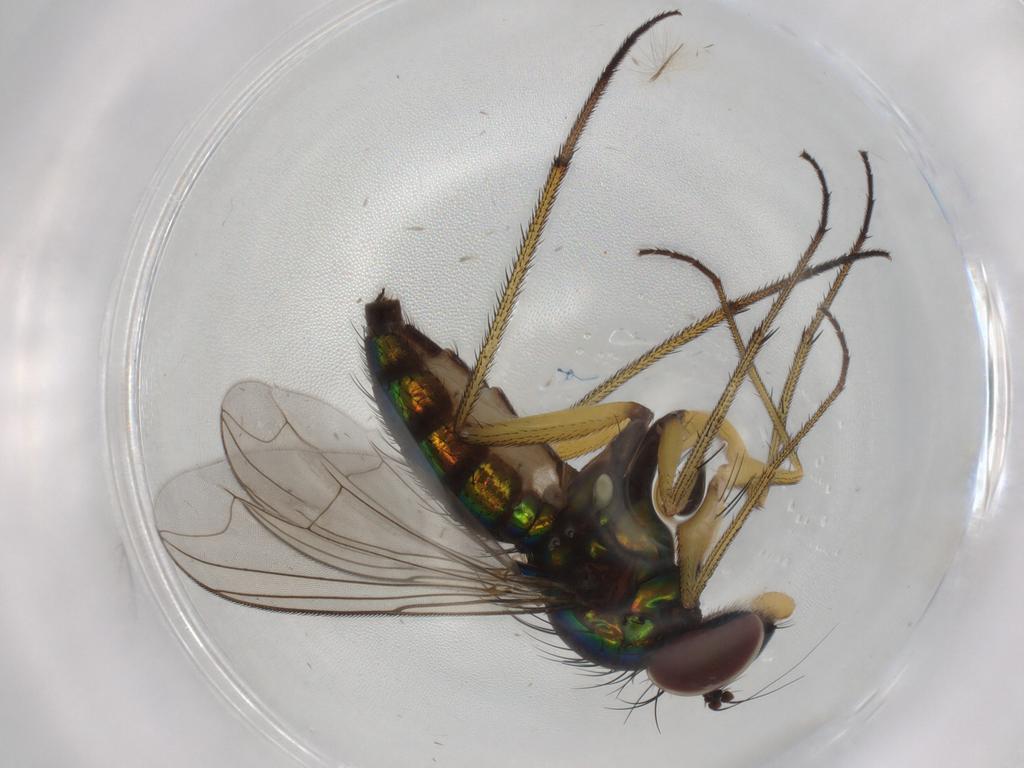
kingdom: Animalia
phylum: Arthropoda
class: Insecta
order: Diptera
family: Dolichopodidae
